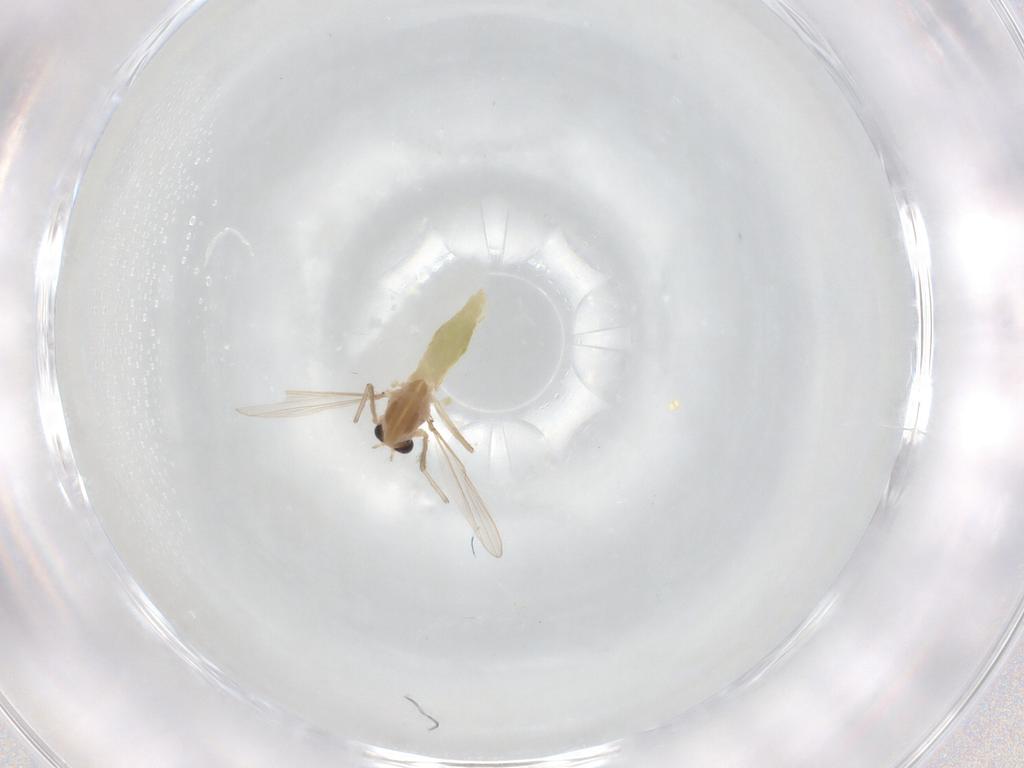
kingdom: Animalia
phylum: Arthropoda
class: Insecta
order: Diptera
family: Chironomidae
